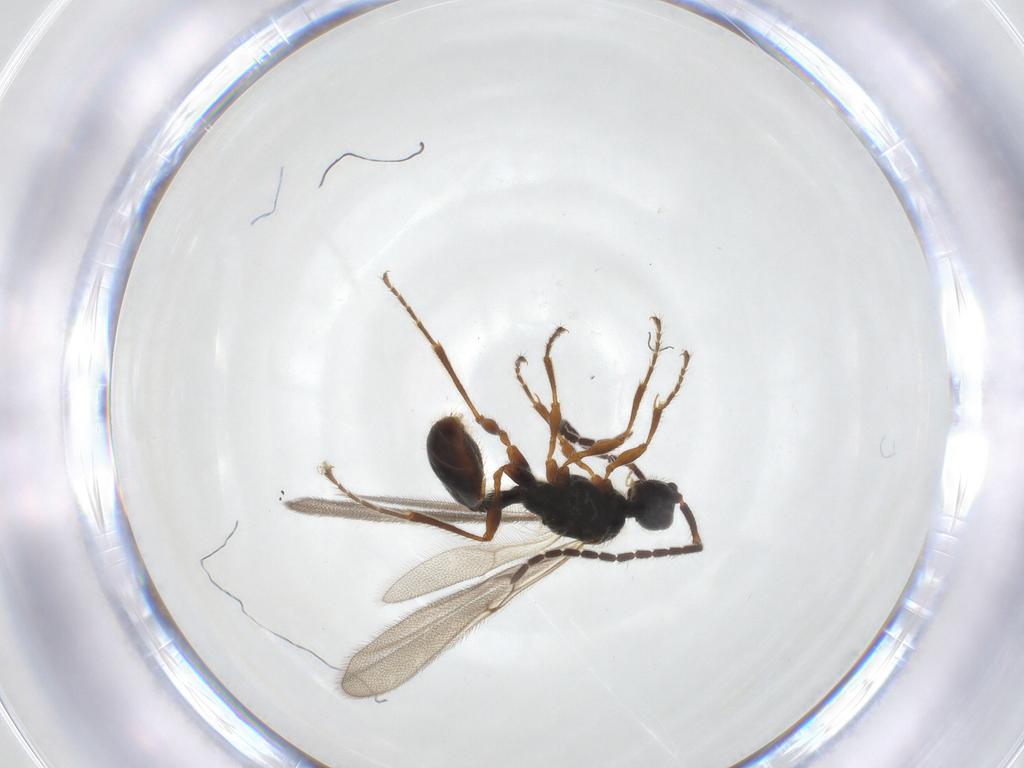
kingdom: Animalia
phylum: Arthropoda
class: Insecta
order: Hymenoptera
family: Diapriidae
